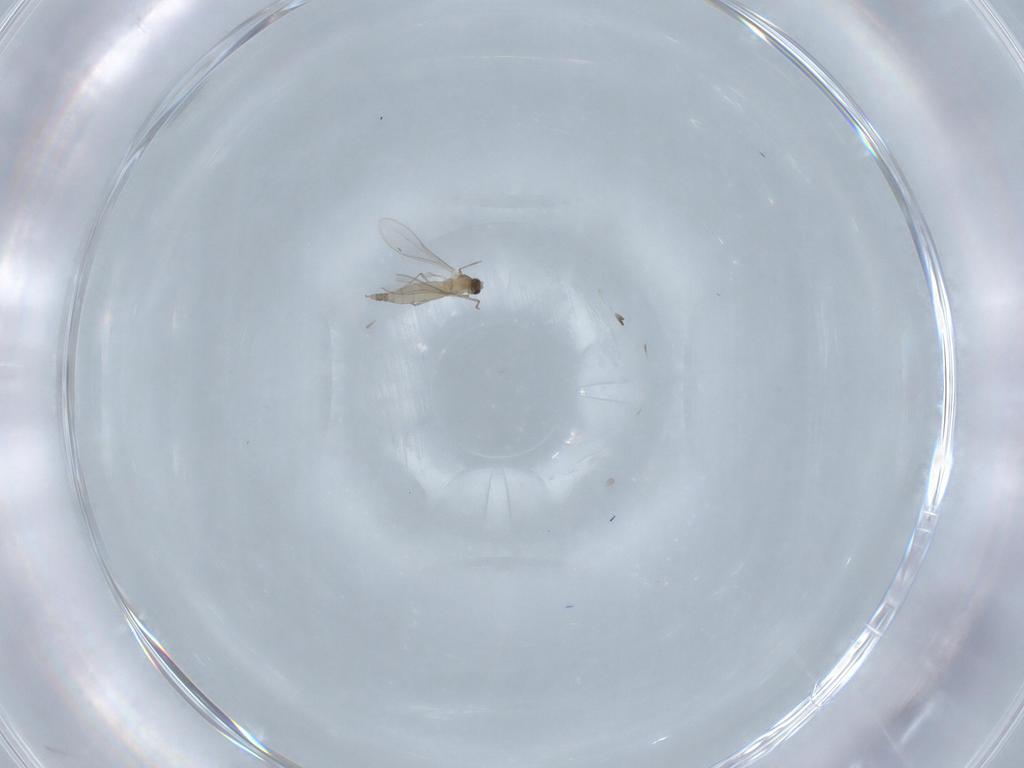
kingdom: Animalia
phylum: Arthropoda
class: Insecta
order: Diptera
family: Cecidomyiidae
